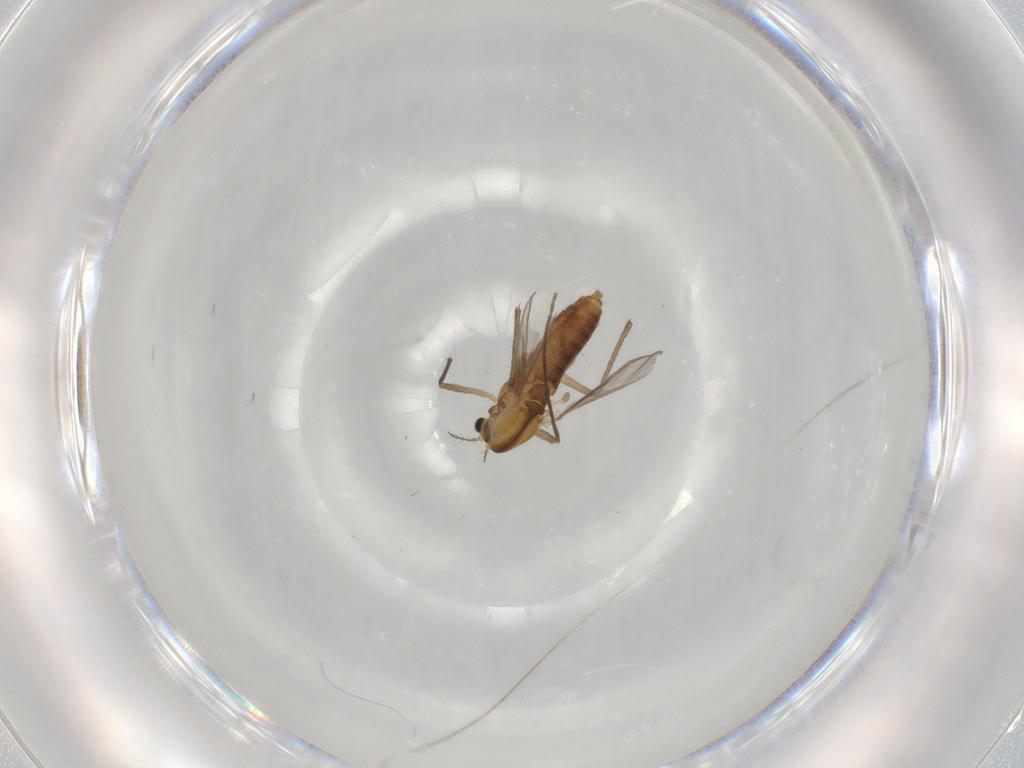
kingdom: Animalia
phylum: Arthropoda
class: Insecta
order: Diptera
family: Chironomidae
